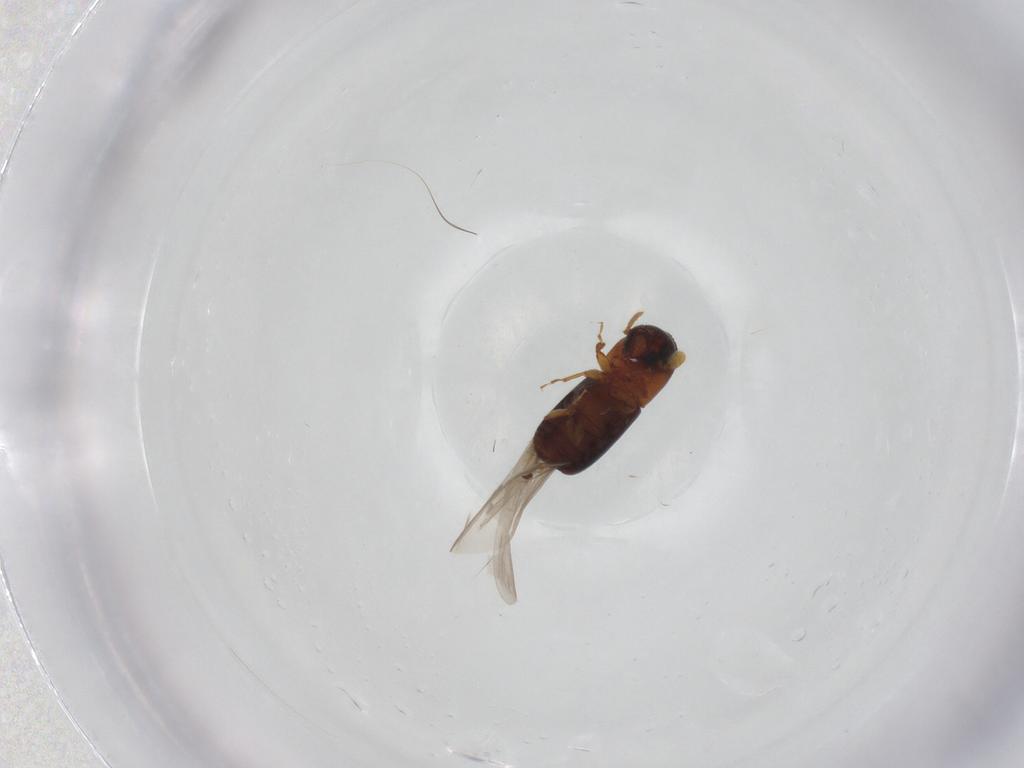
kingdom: Animalia
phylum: Arthropoda
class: Insecta
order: Coleoptera
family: Curculionidae
